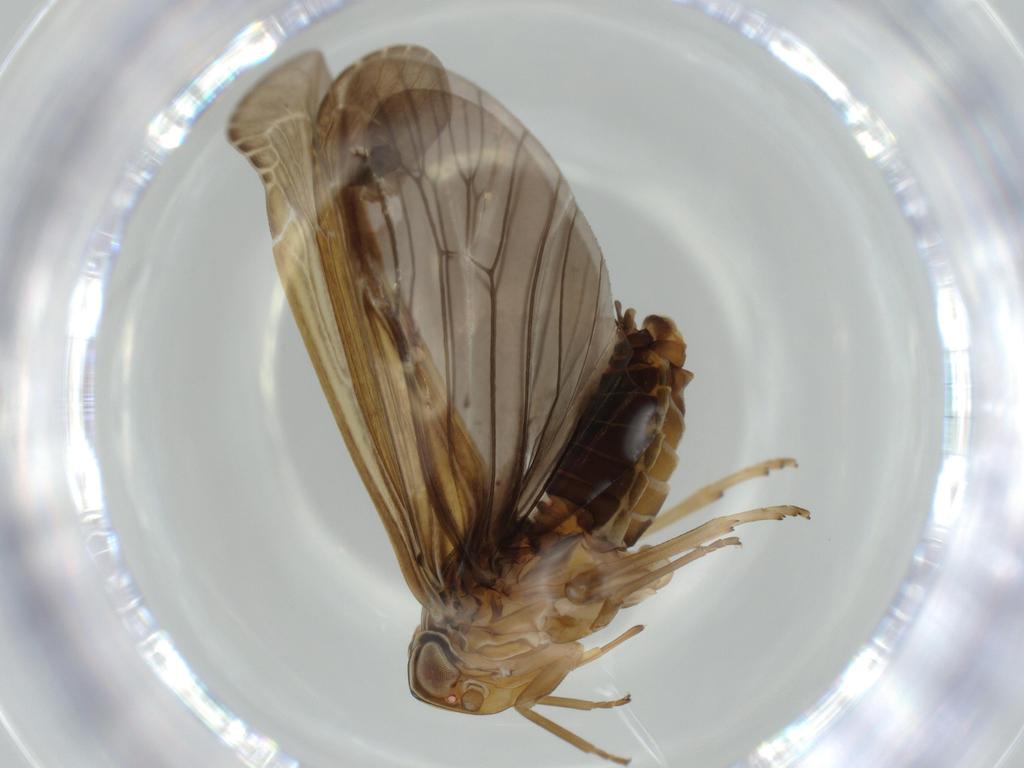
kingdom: Animalia
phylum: Arthropoda
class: Insecta
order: Hemiptera
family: Achilidae
